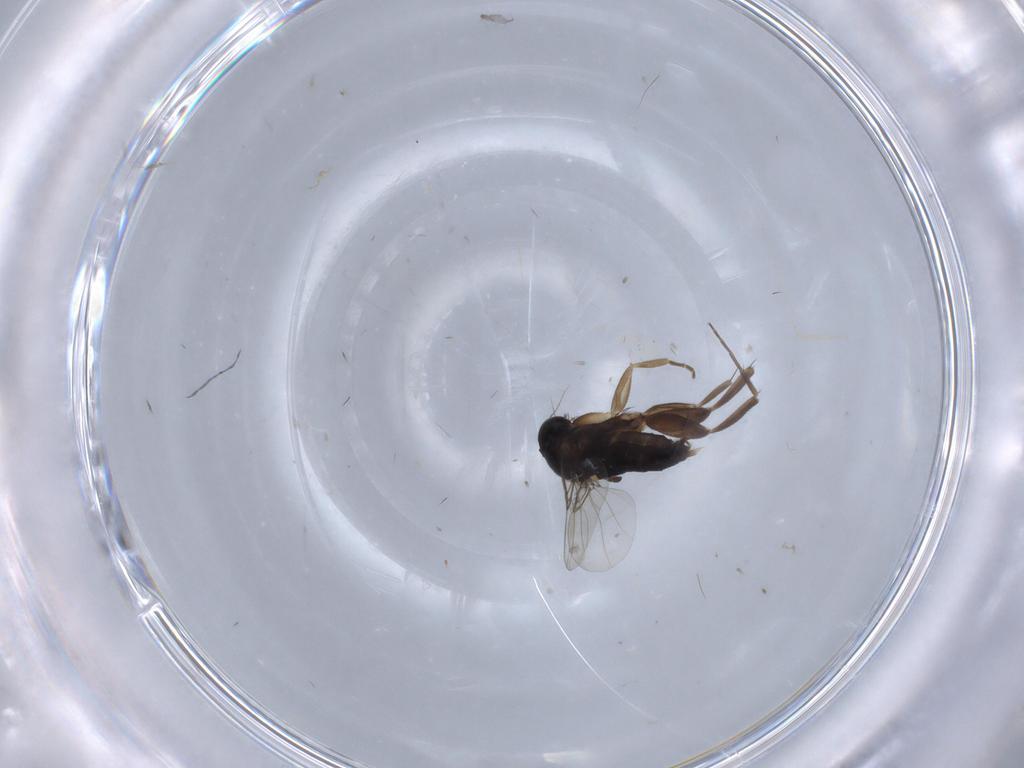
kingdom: Animalia
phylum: Arthropoda
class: Insecta
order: Diptera
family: Phoridae
